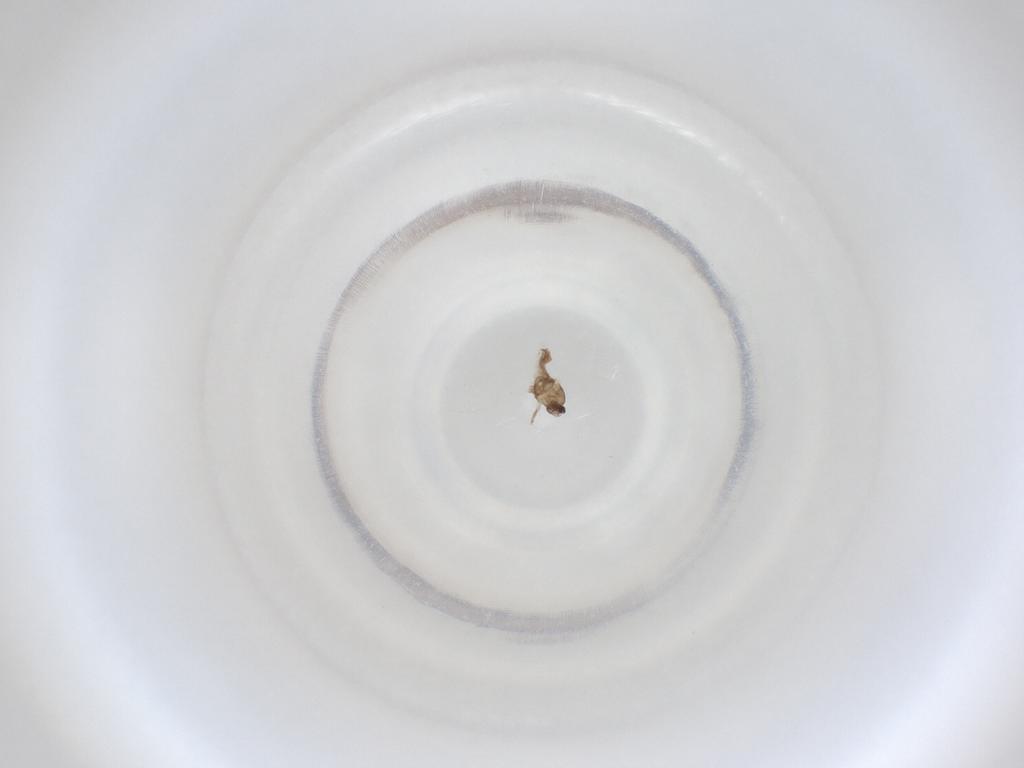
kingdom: Animalia
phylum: Arthropoda
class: Insecta
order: Diptera
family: Cecidomyiidae
